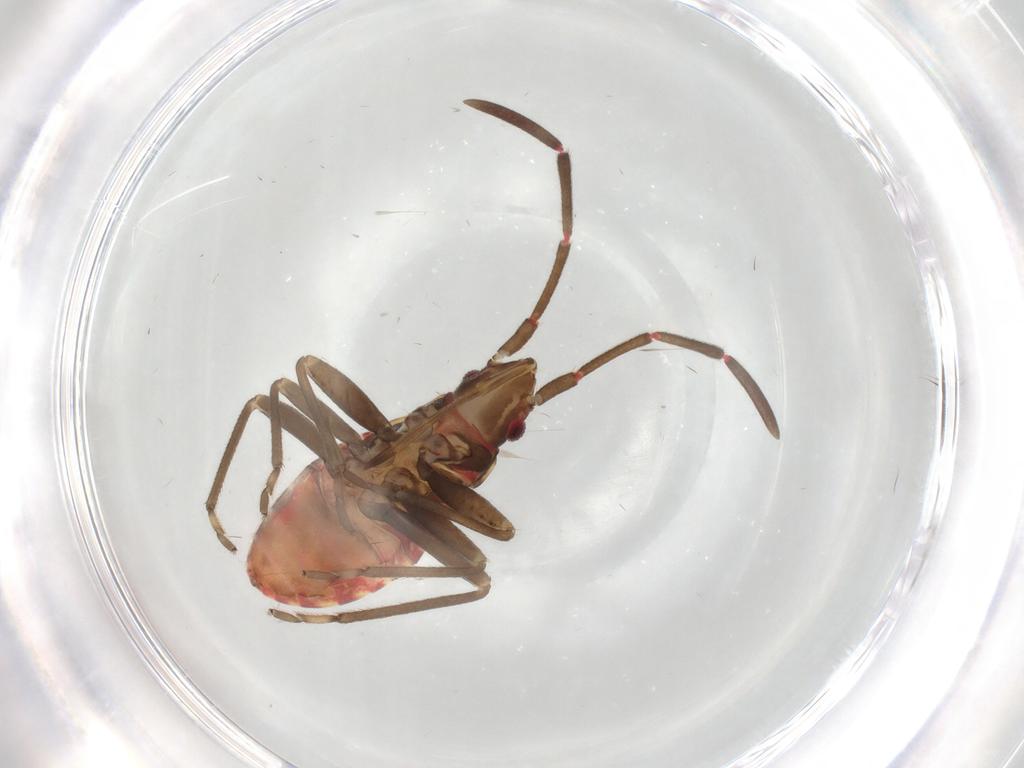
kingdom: Animalia
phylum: Arthropoda
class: Insecta
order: Hemiptera
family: Rhyparochromidae
